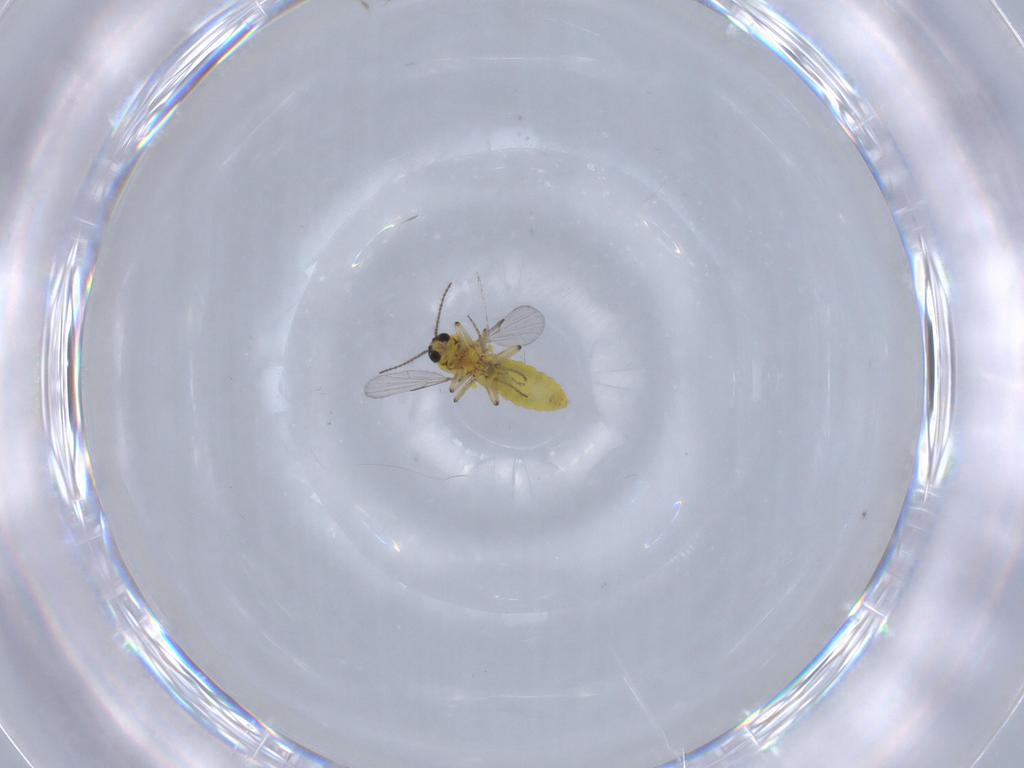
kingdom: Animalia
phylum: Arthropoda
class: Insecta
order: Diptera
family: Ceratopogonidae
